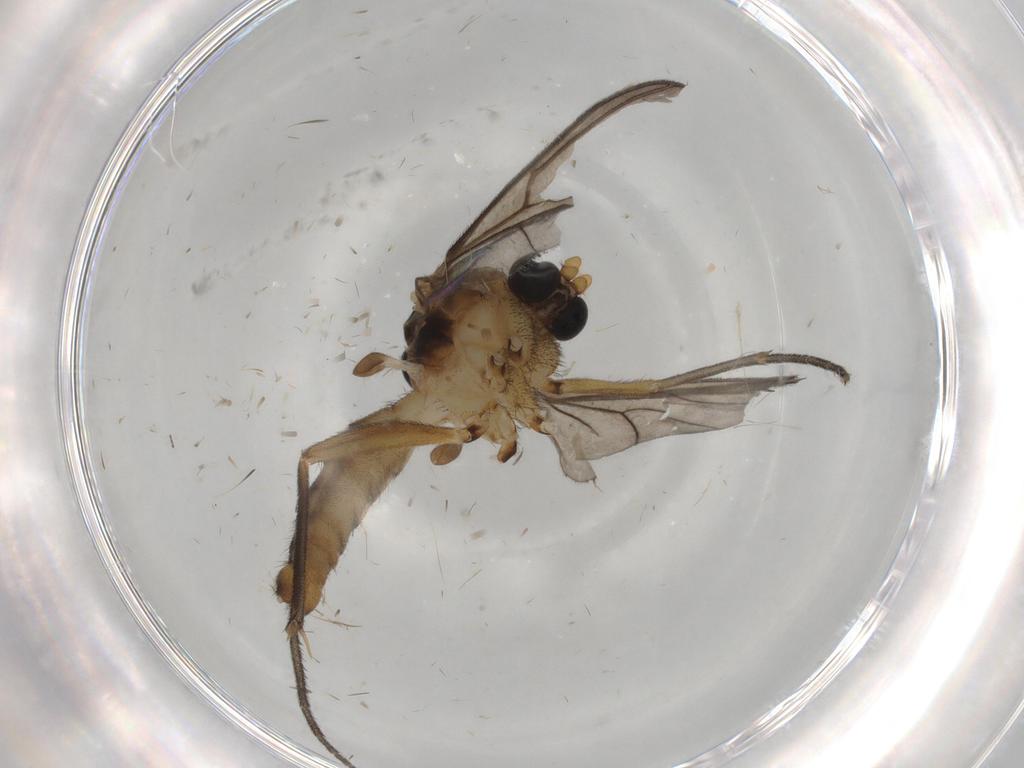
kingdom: Animalia
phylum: Arthropoda
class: Insecta
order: Diptera
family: Mycetophilidae
